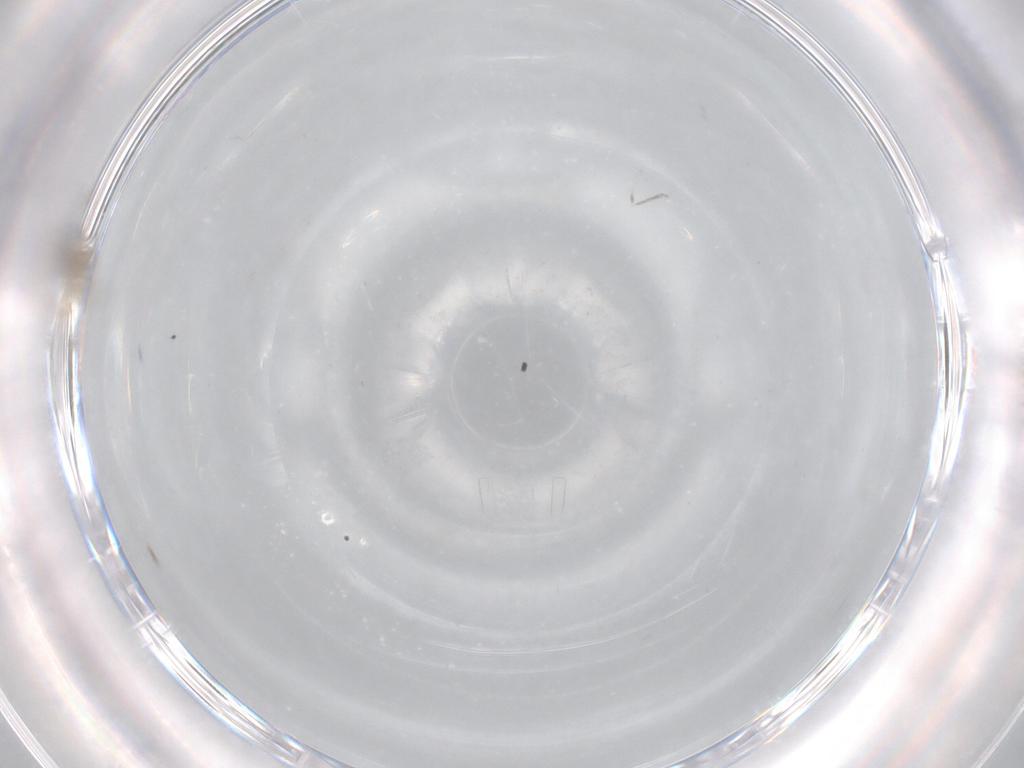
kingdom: Animalia
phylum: Arthropoda
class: Insecta
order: Diptera
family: Cecidomyiidae
